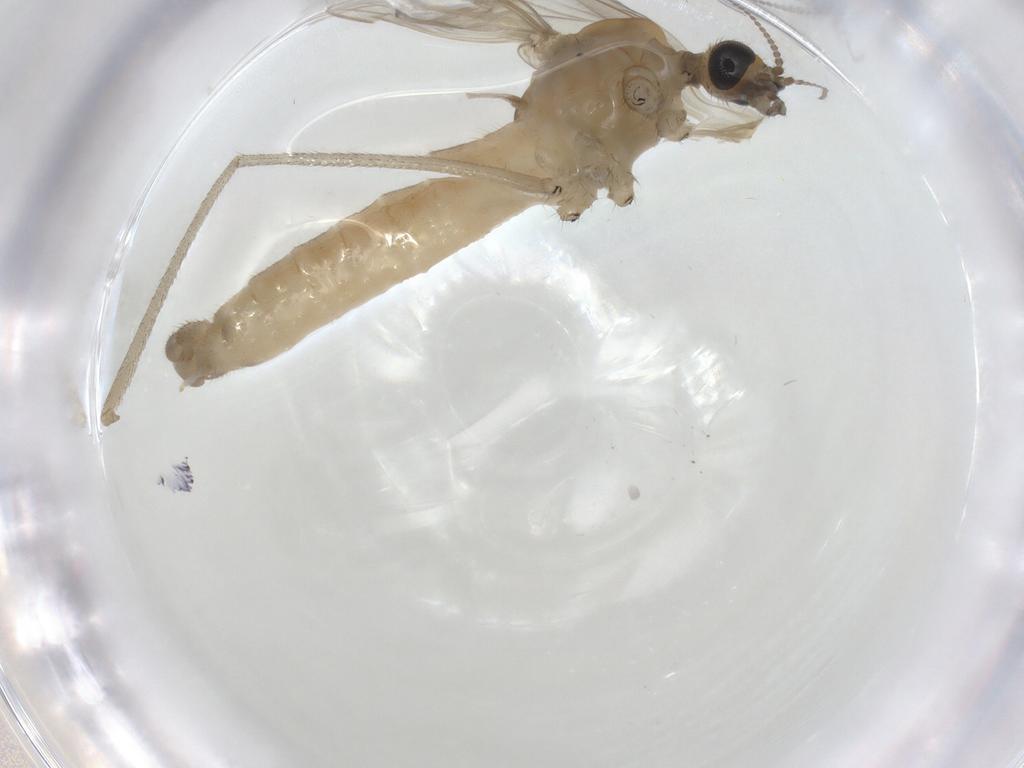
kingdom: Animalia
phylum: Arthropoda
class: Insecta
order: Diptera
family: Limoniidae
